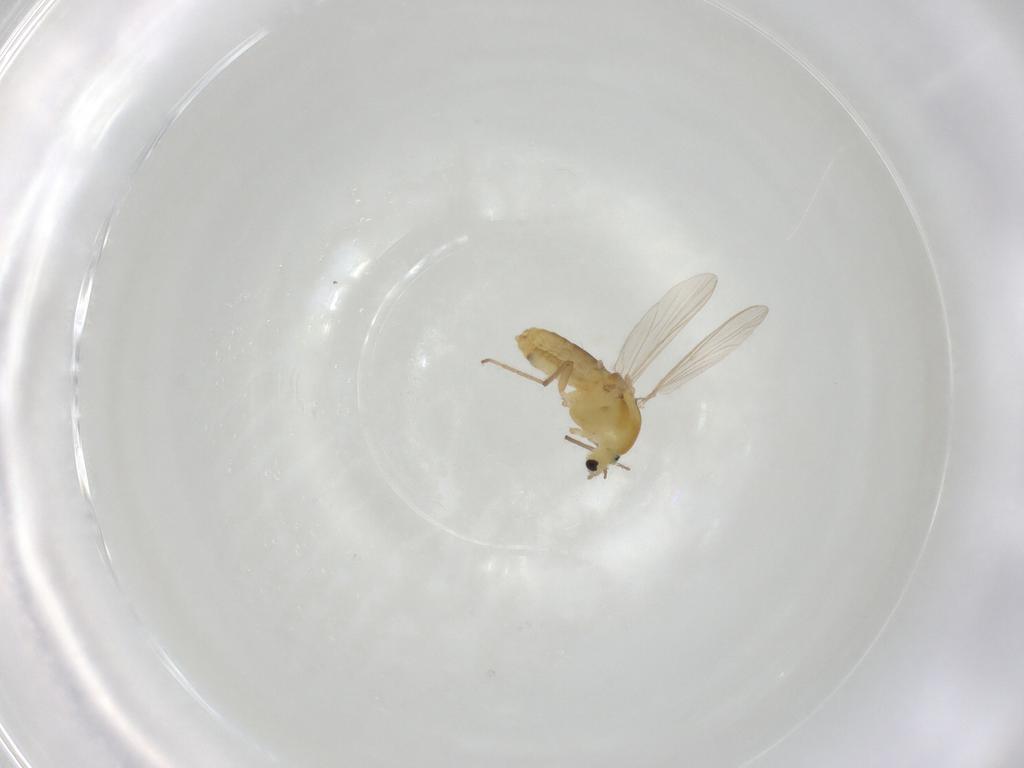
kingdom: Animalia
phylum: Arthropoda
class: Insecta
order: Diptera
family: Chironomidae
